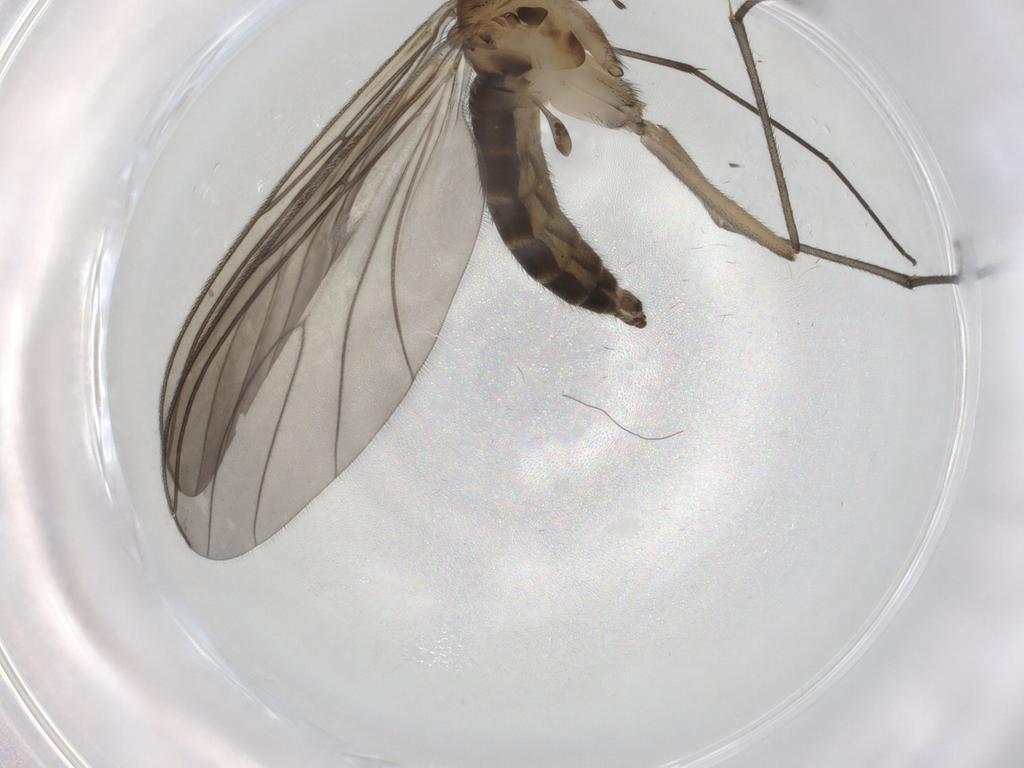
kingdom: Animalia
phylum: Arthropoda
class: Insecta
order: Diptera
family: Sciaridae
